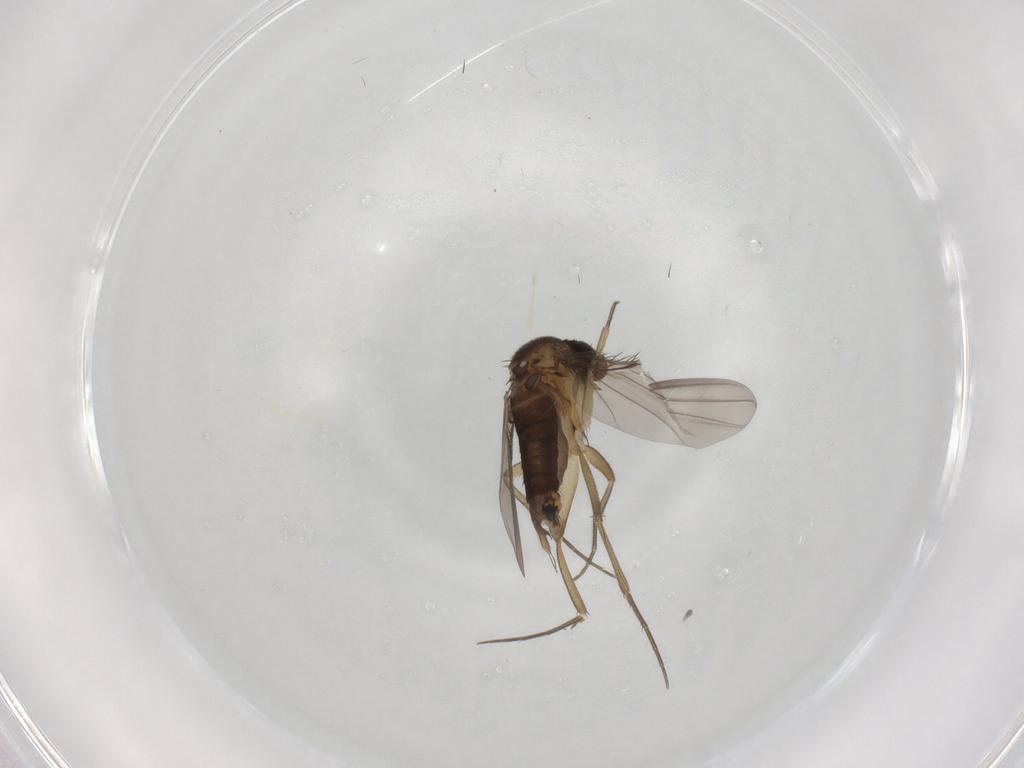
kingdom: Animalia
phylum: Arthropoda
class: Insecta
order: Diptera
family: Phoridae
